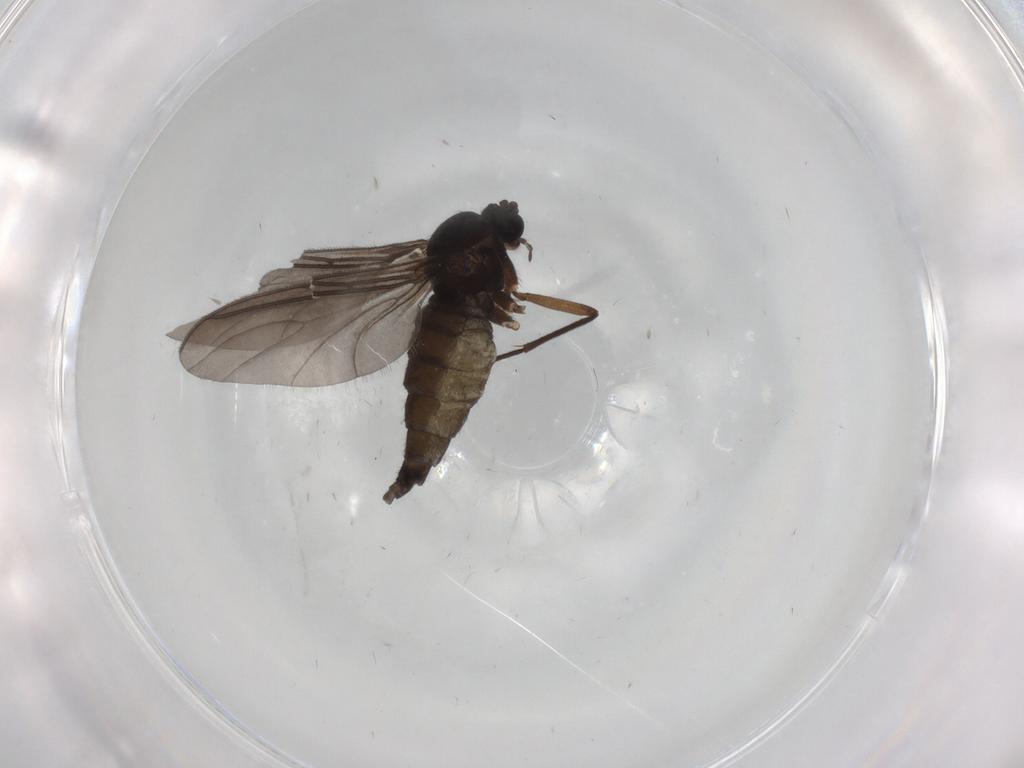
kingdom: Animalia
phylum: Arthropoda
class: Insecta
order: Diptera
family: Sciaridae
